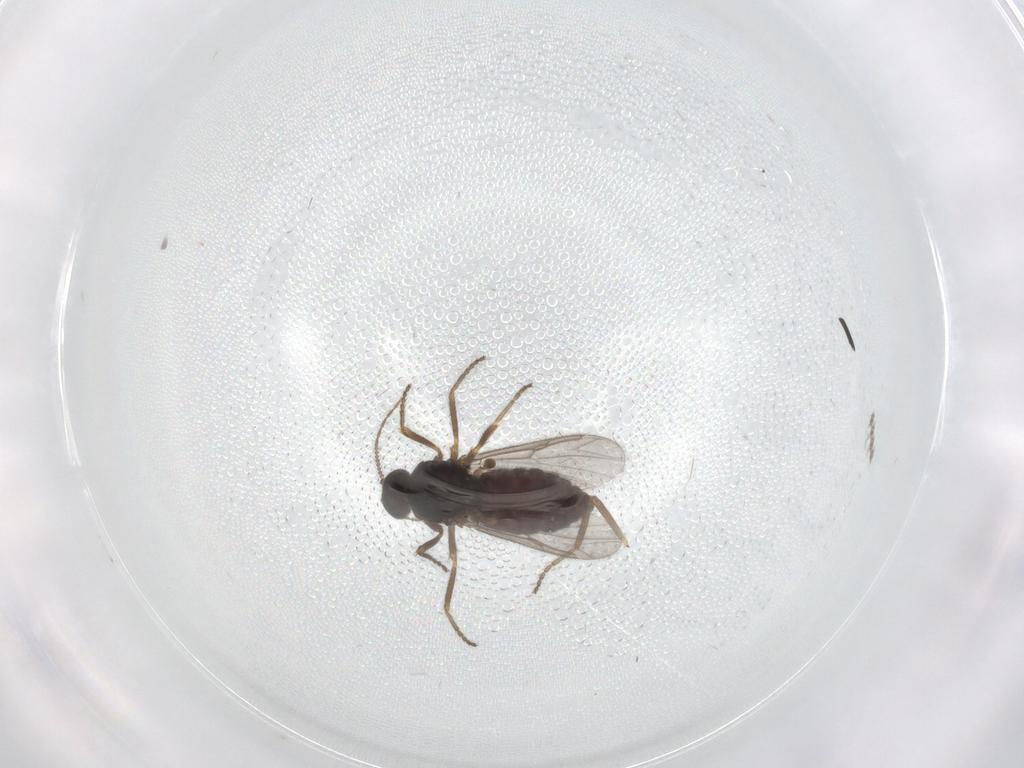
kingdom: Animalia
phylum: Arthropoda
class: Insecta
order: Diptera
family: Ceratopogonidae
